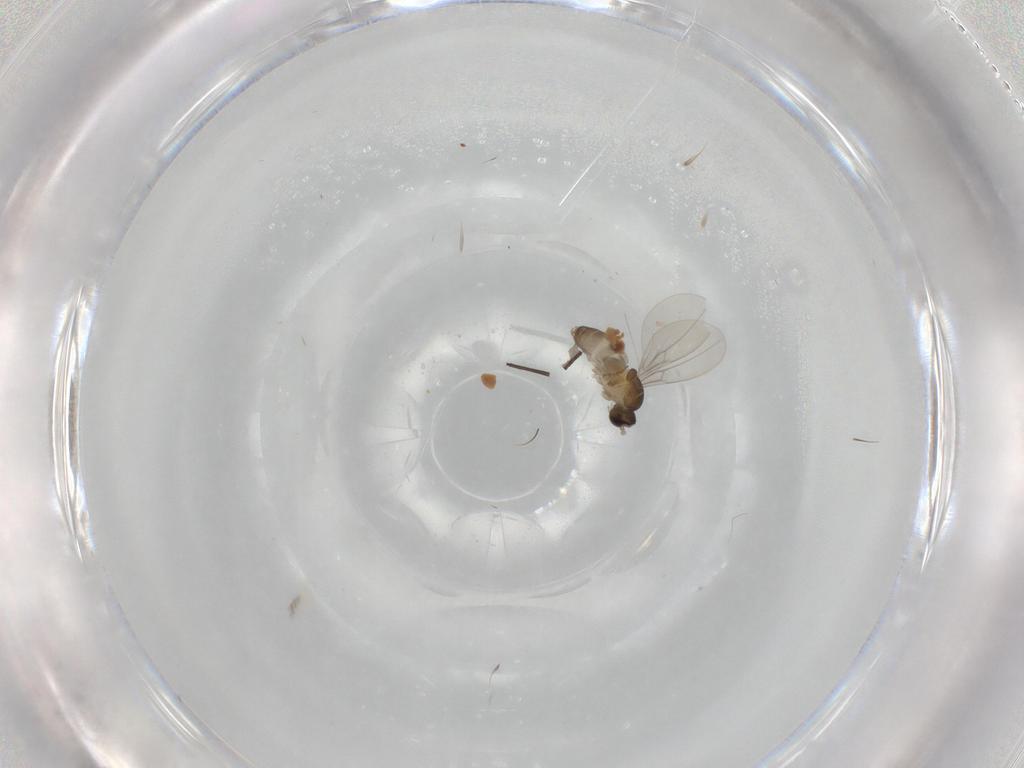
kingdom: Animalia
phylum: Arthropoda
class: Insecta
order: Diptera
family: Cecidomyiidae
